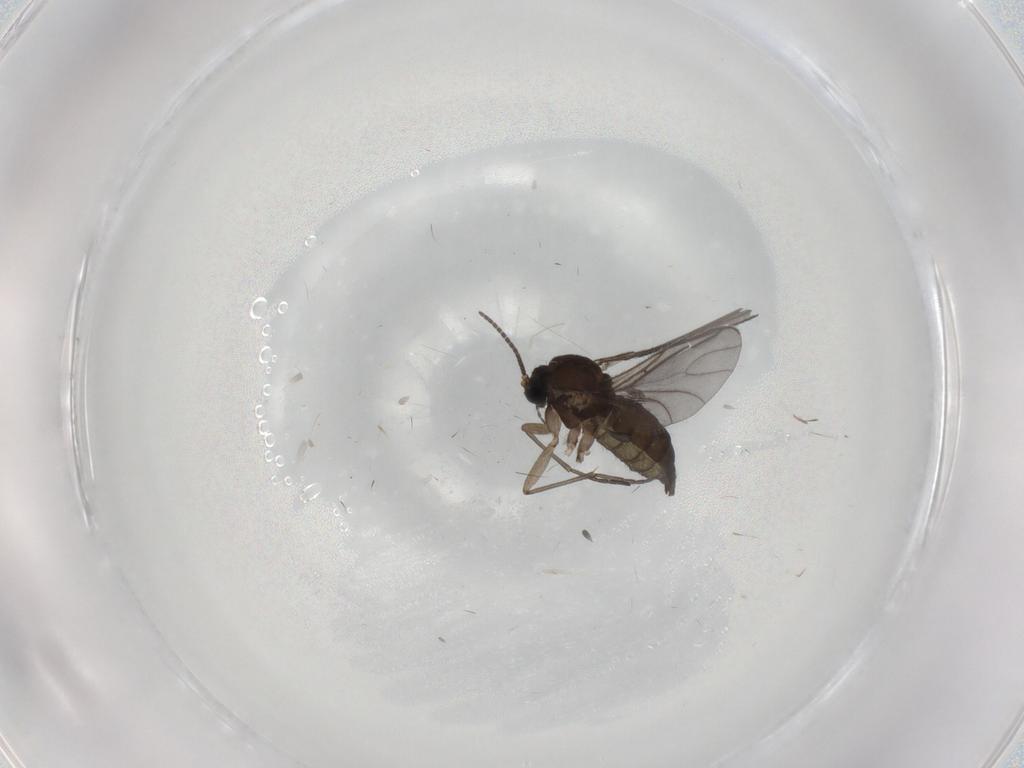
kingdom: Animalia
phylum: Arthropoda
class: Insecta
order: Diptera
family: Sciaridae
